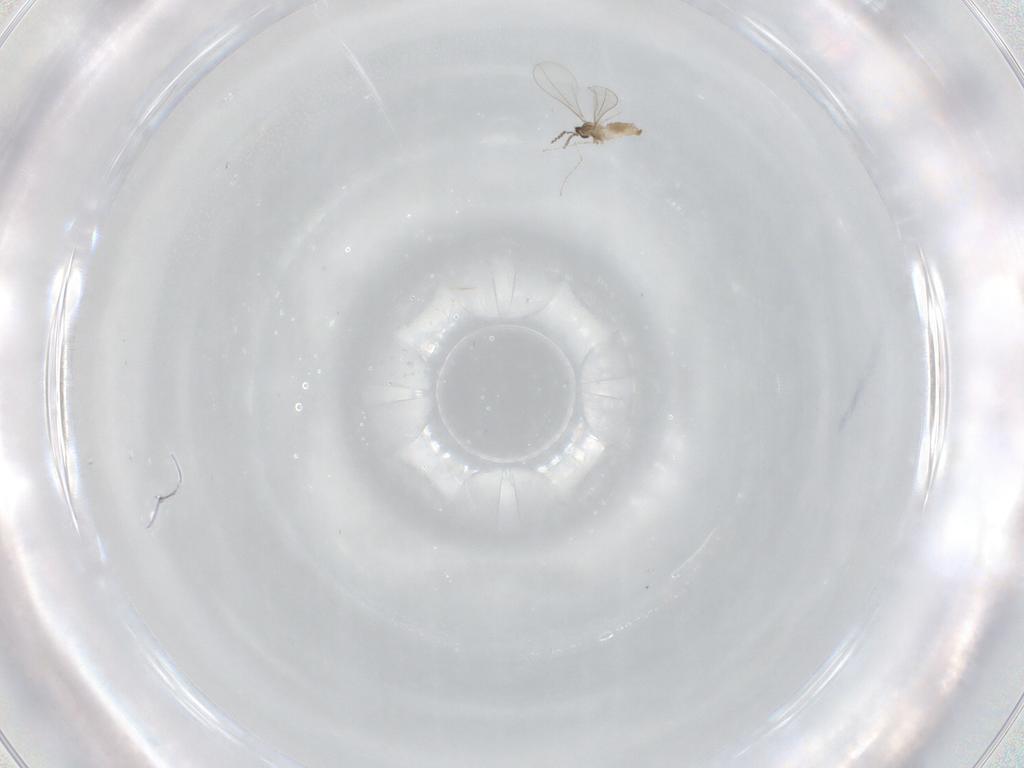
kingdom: Animalia
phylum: Arthropoda
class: Insecta
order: Diptera
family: Cecidomyiidae
